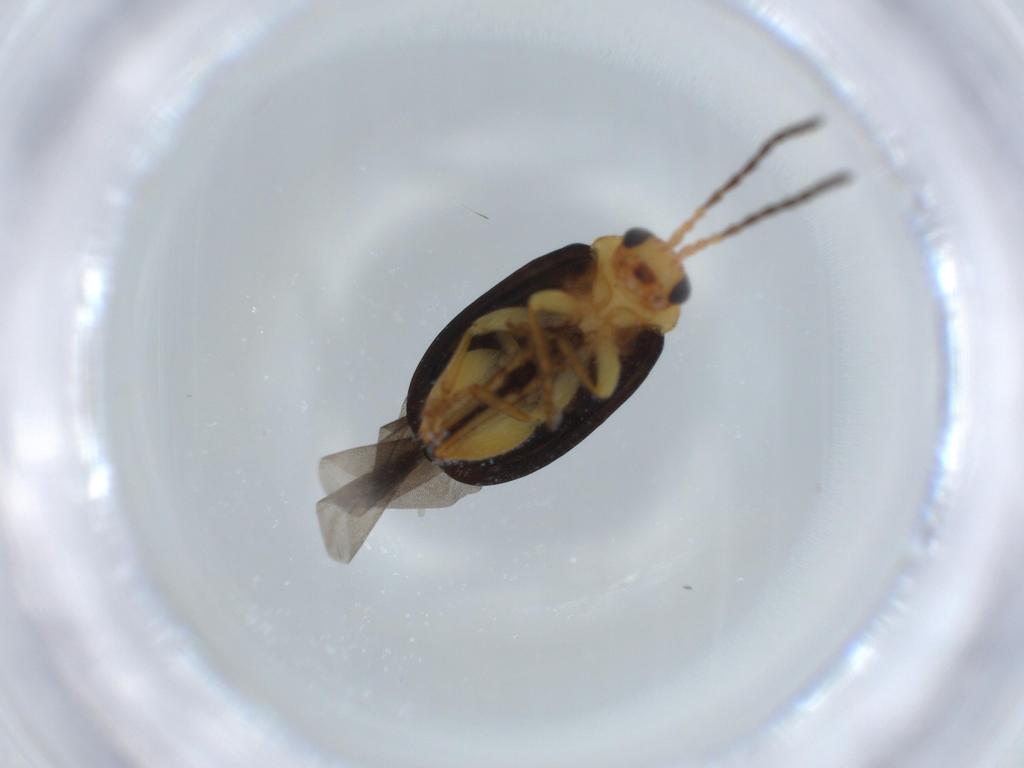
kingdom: Animalia
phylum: Arthropoda
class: Insecta
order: Coleoptera
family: Chrysomelidae
